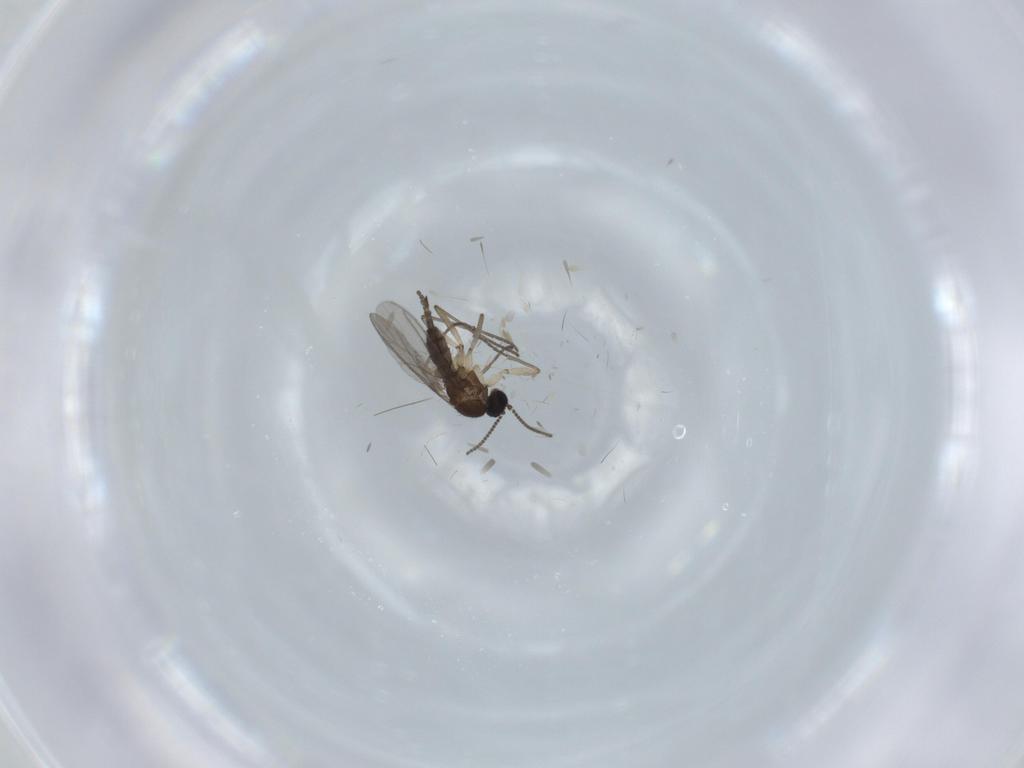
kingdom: Animalia
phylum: Arthropoda
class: Insecta
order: Diptera
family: Sciaridae
